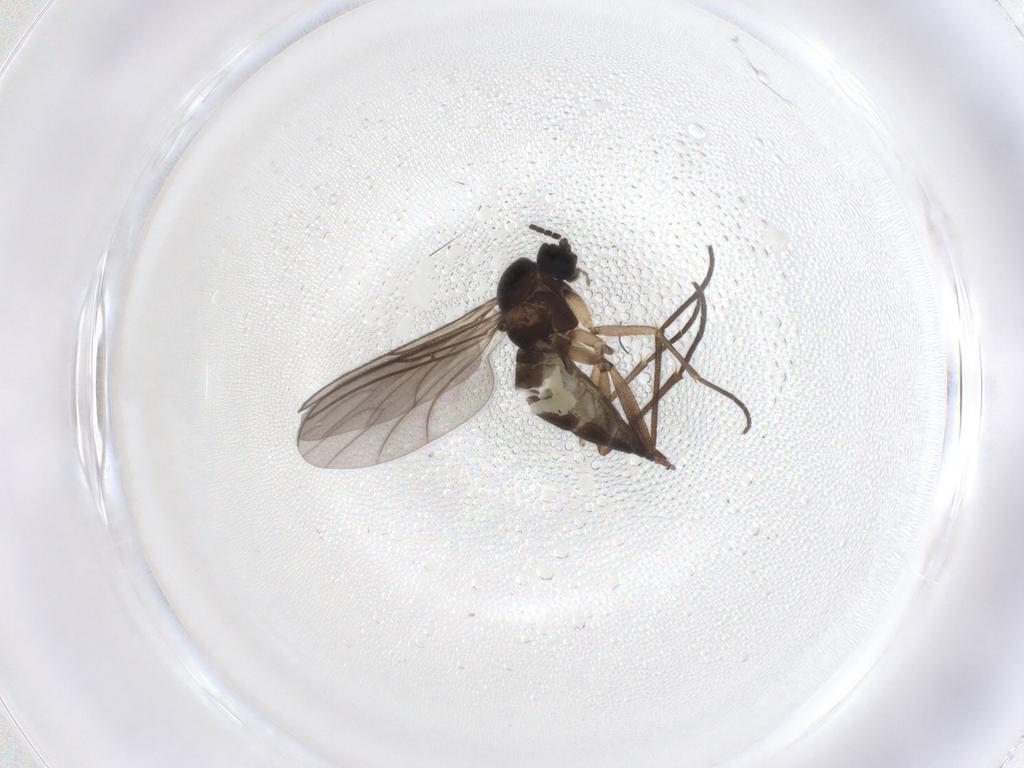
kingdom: Animalia
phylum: Arthropoda
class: Insecta
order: Diptera
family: Sciaridae
